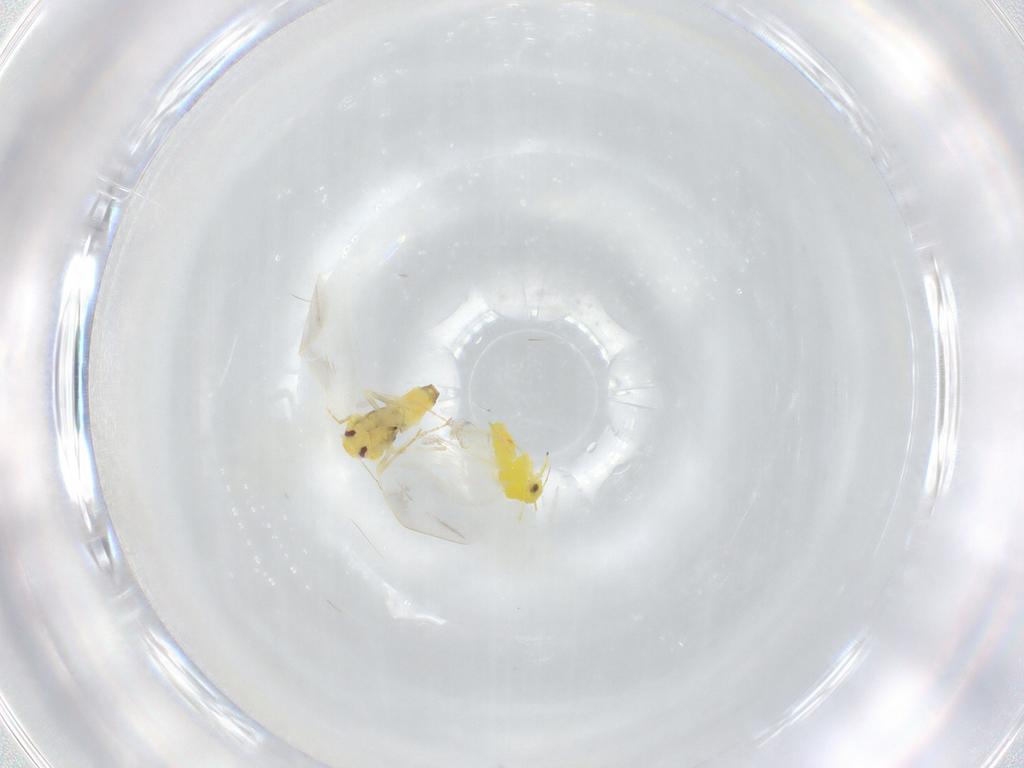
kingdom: Animalia
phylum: Arthropoda
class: Insecta
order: Hemiptera
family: Aleyrodidae
